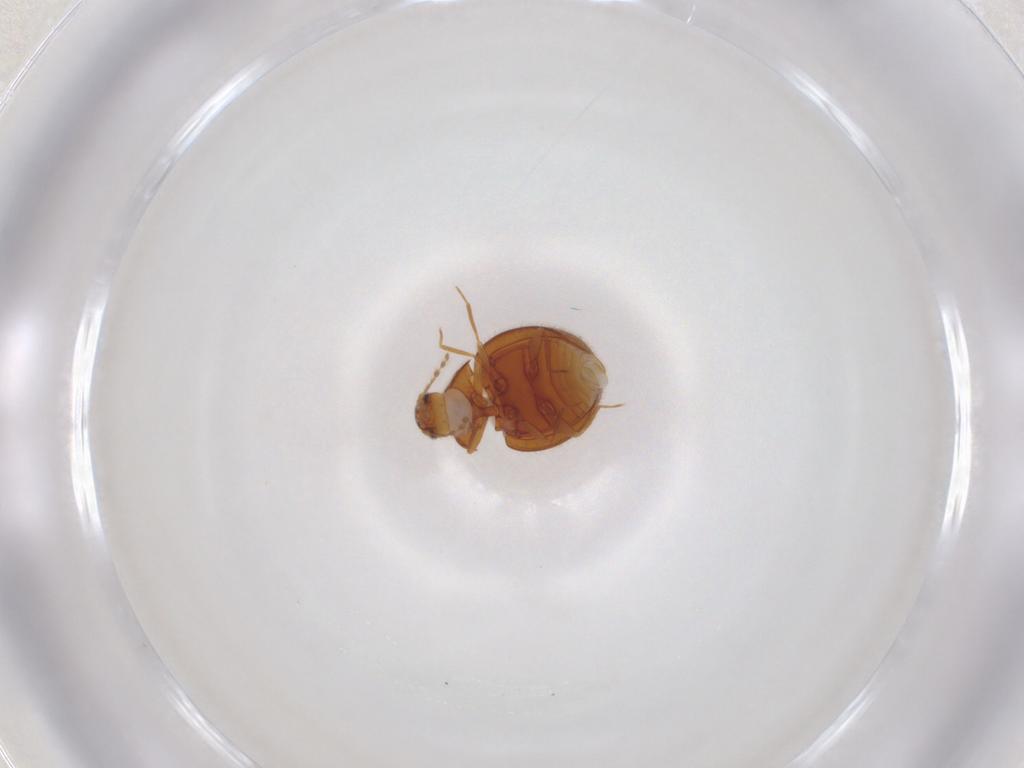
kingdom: Animalia
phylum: Arthropoda
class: Insecta
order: Coleoptera
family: Anamorphidae
